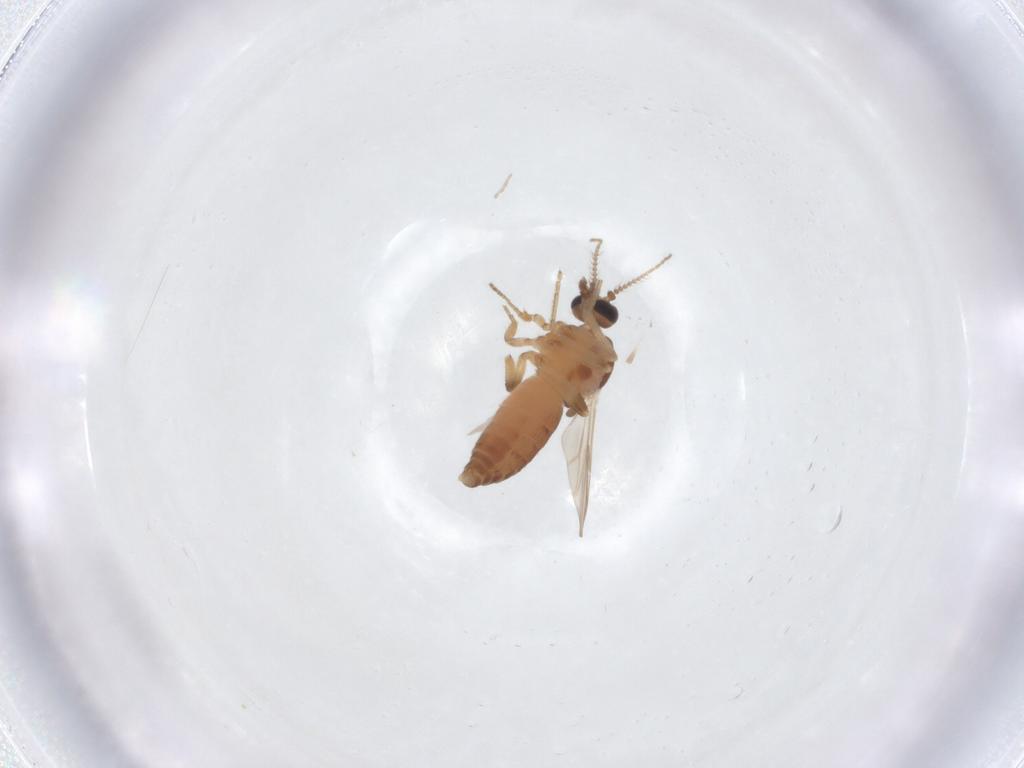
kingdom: Animalia
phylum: Arthropoda
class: Insecta
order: Diptera
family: Ceratopogonidae
